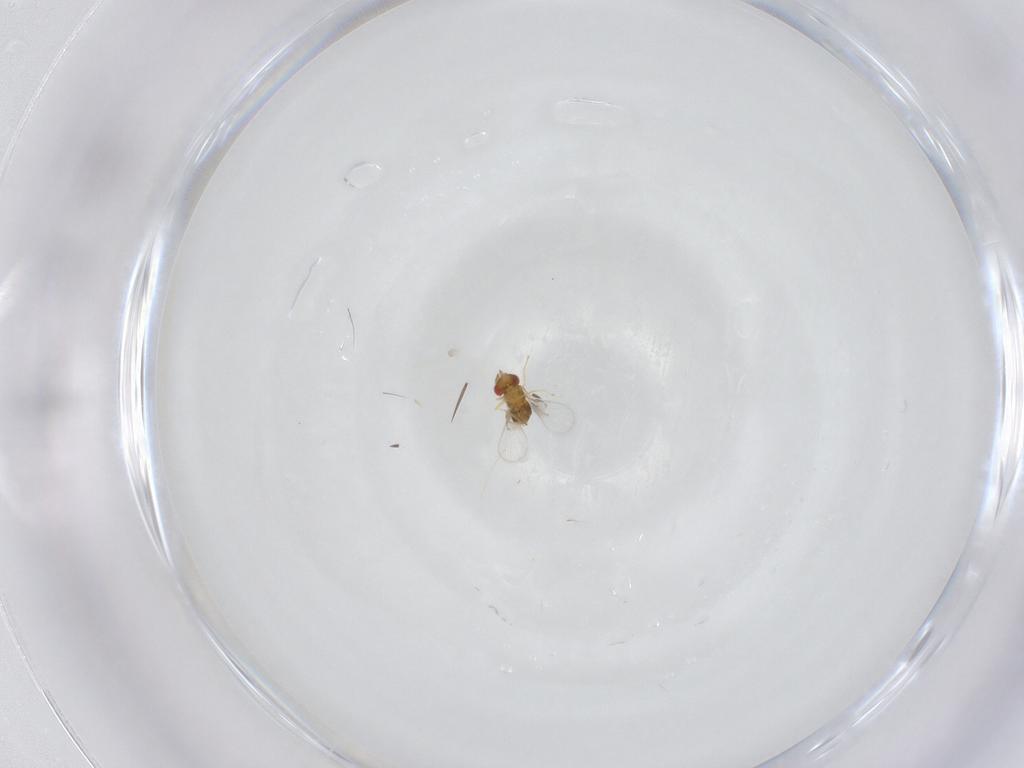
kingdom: Animalia
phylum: Arthropoda
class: Insecta
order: Hymenoptera
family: Trichogrammatidae
